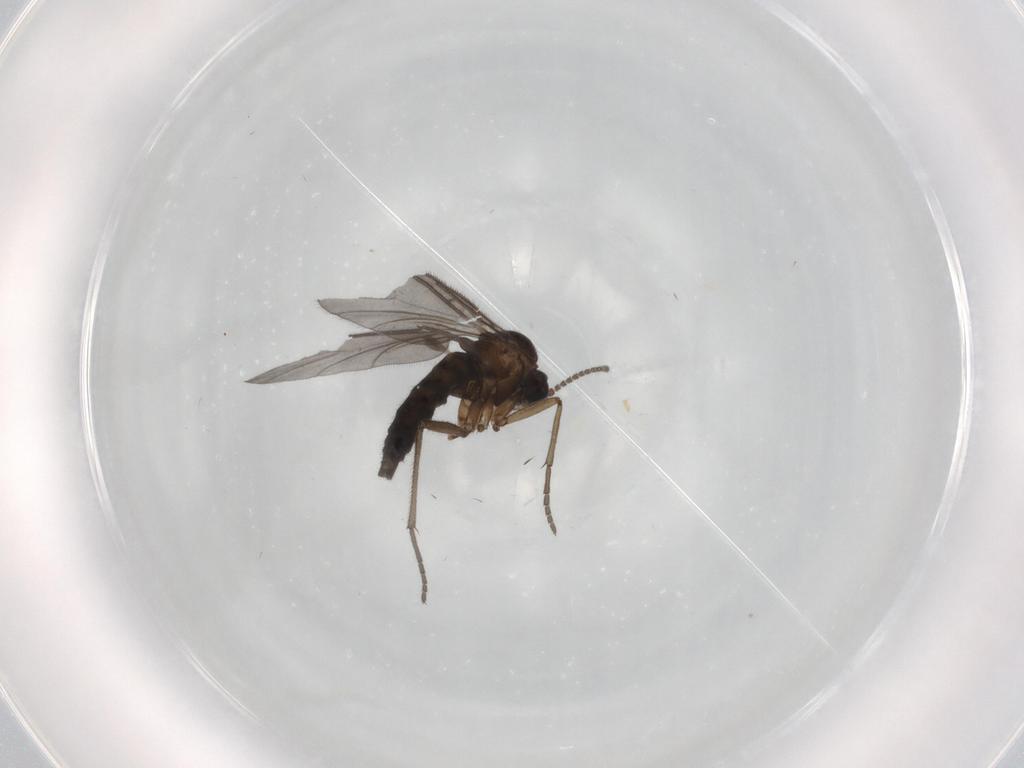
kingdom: Animalia
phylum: Arthropoda
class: Insecta
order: Diptera
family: Sciaridae
